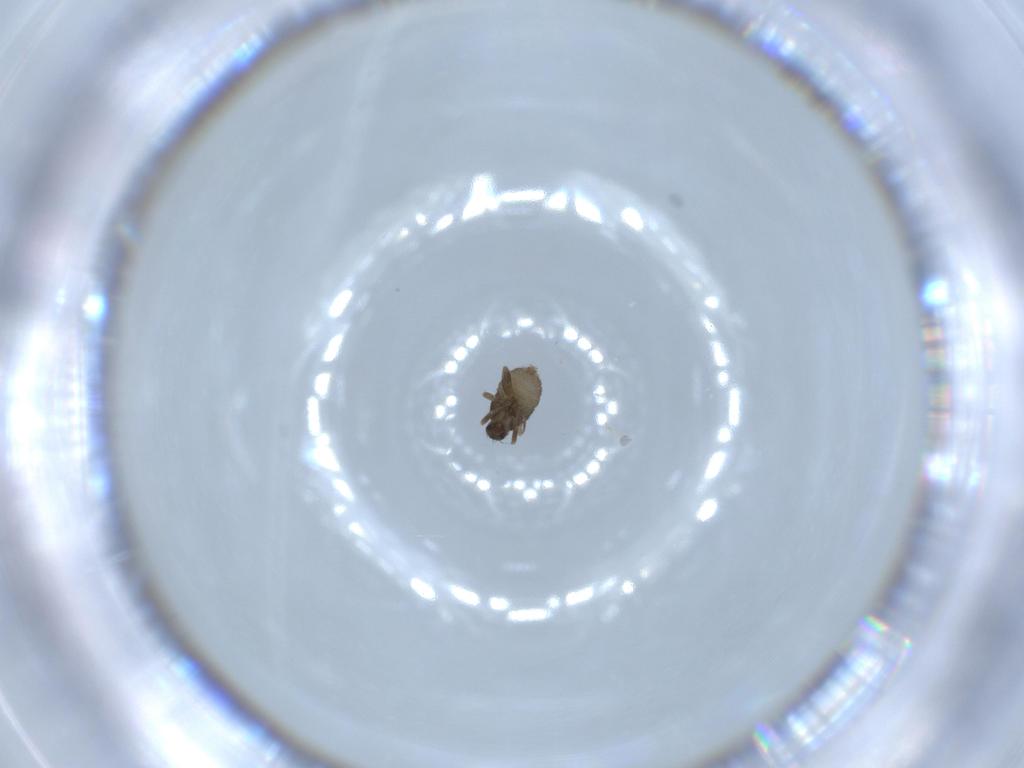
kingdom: Animalia
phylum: Arthropoda
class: Insecta
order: Diptera
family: Phoridae
